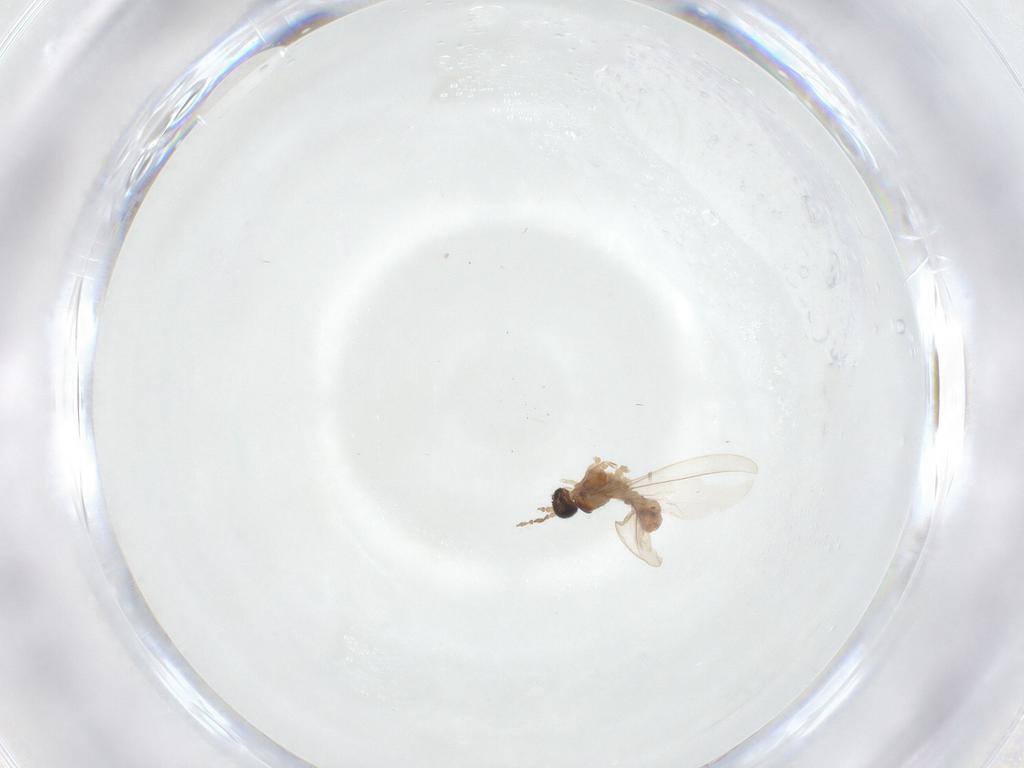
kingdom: Animalia
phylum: Arthropoda
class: Insecta
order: Diptera
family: Cecidomyiidae
